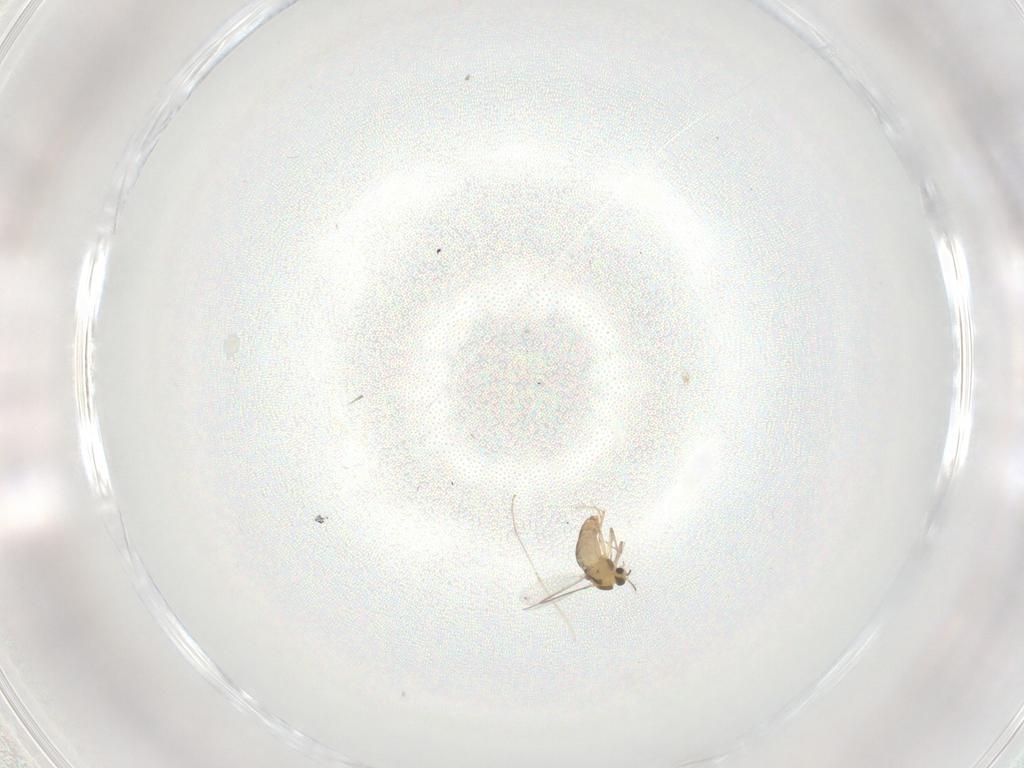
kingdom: Animalia
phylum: Arthropoda
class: Insecta
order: Diptera
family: Cecidomyiidae
